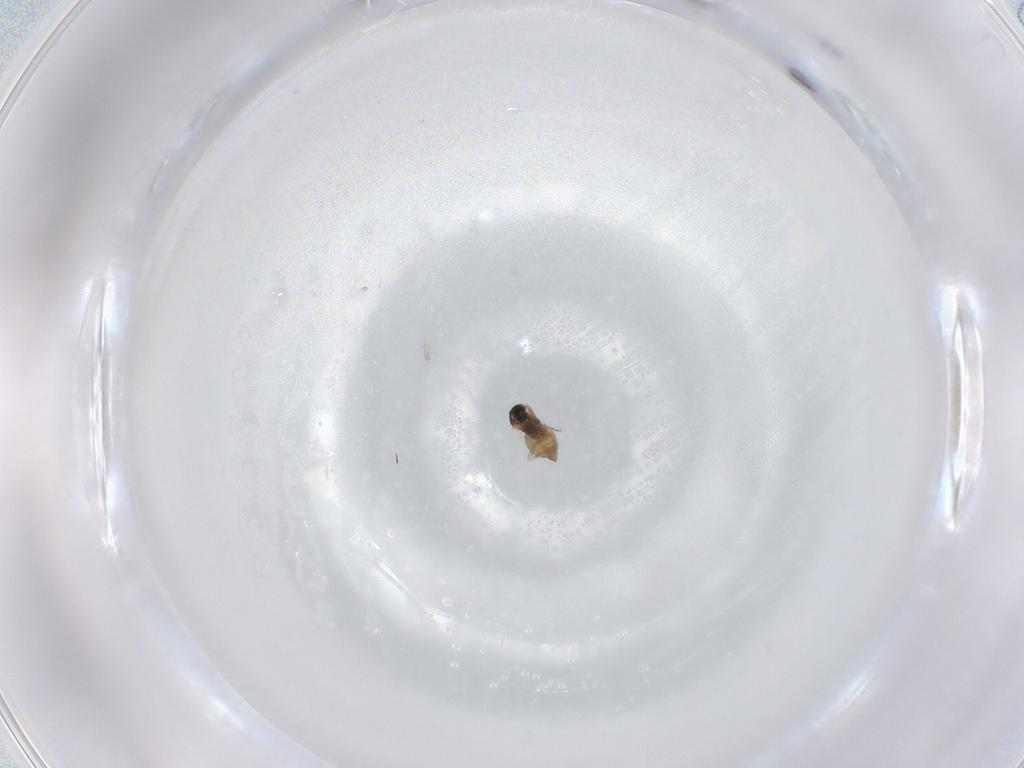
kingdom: Animalia
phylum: Arthropoda
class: Insecta
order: Diptera
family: Cecidomyiidae
